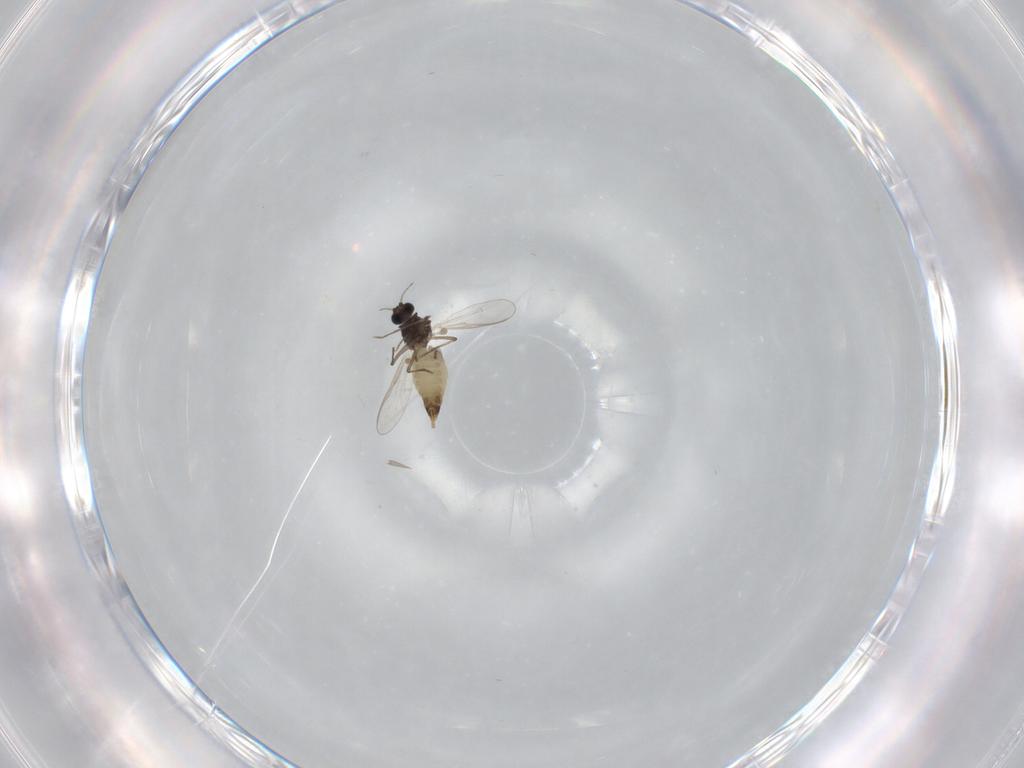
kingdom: Animalia
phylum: Arthropoda
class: Insecta
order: Diptera
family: Chironomidae
